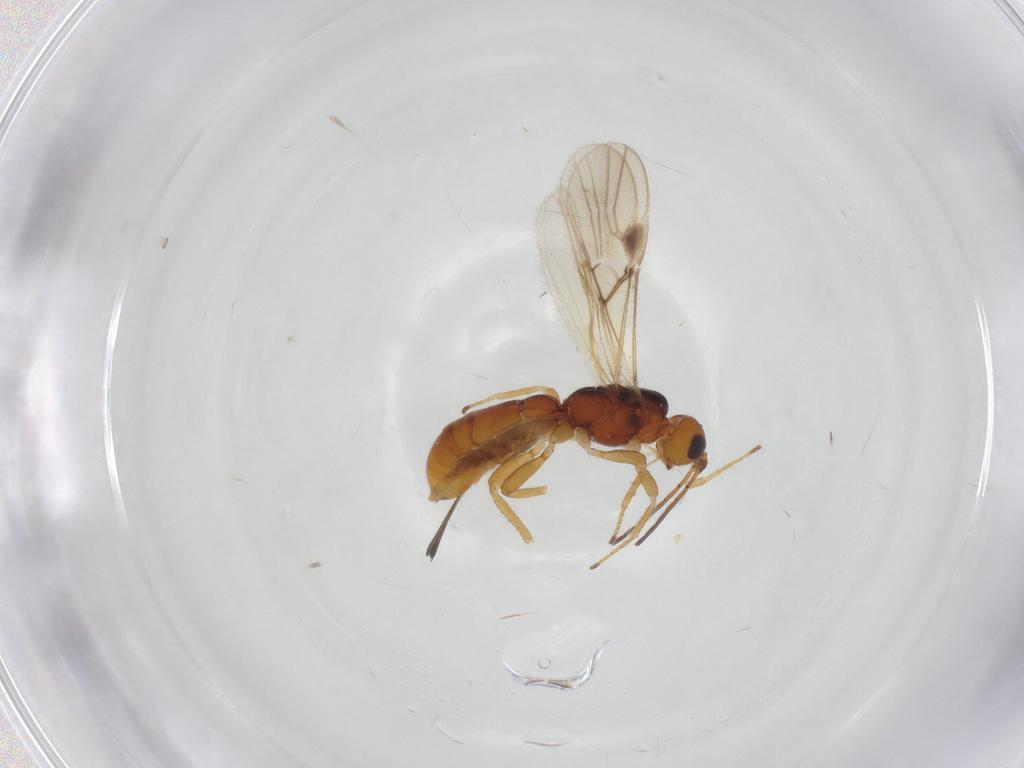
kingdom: Animalia
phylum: Arthropoda
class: Insecta
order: Hymenoptera
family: Braconidae
